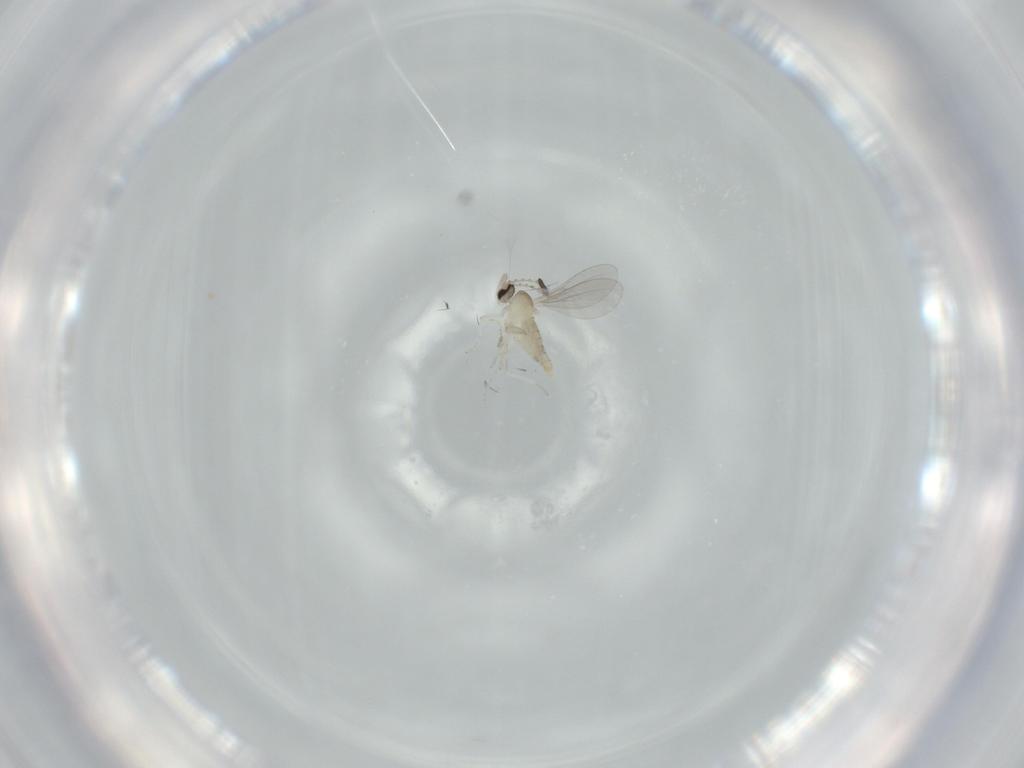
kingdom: Animalia
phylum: Arthropoda
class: Insecta
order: Diptera
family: Cecidomyiidae
